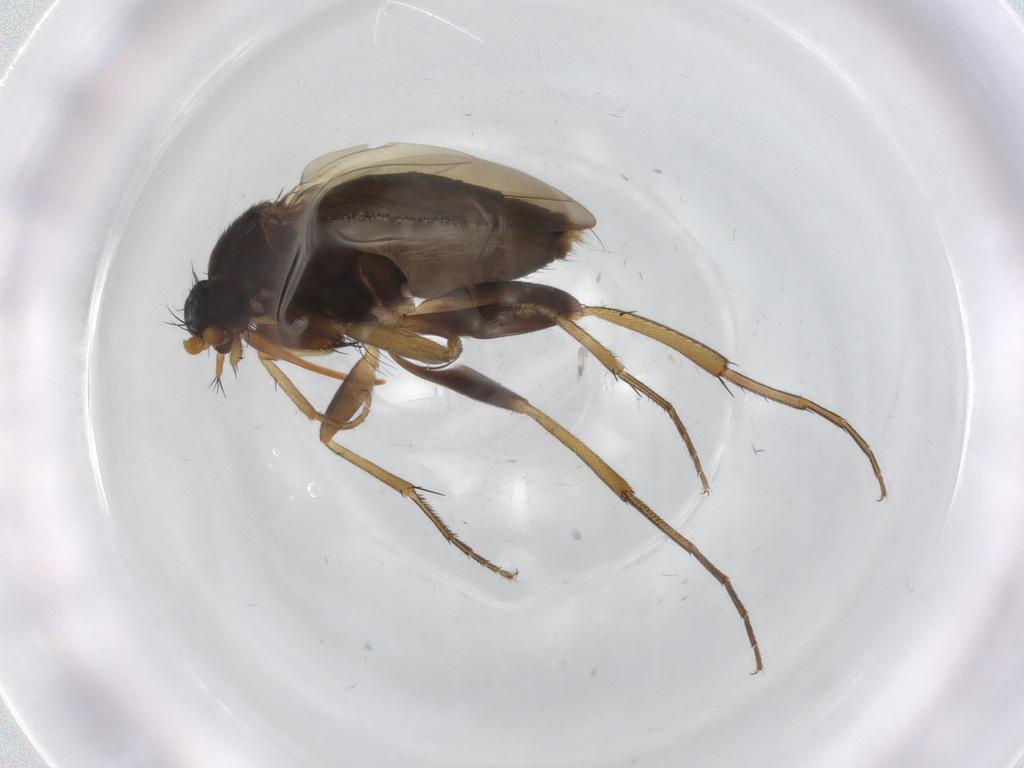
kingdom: Animalia
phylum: Arthropoda
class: Insecta
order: Diptera
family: Phoridae
